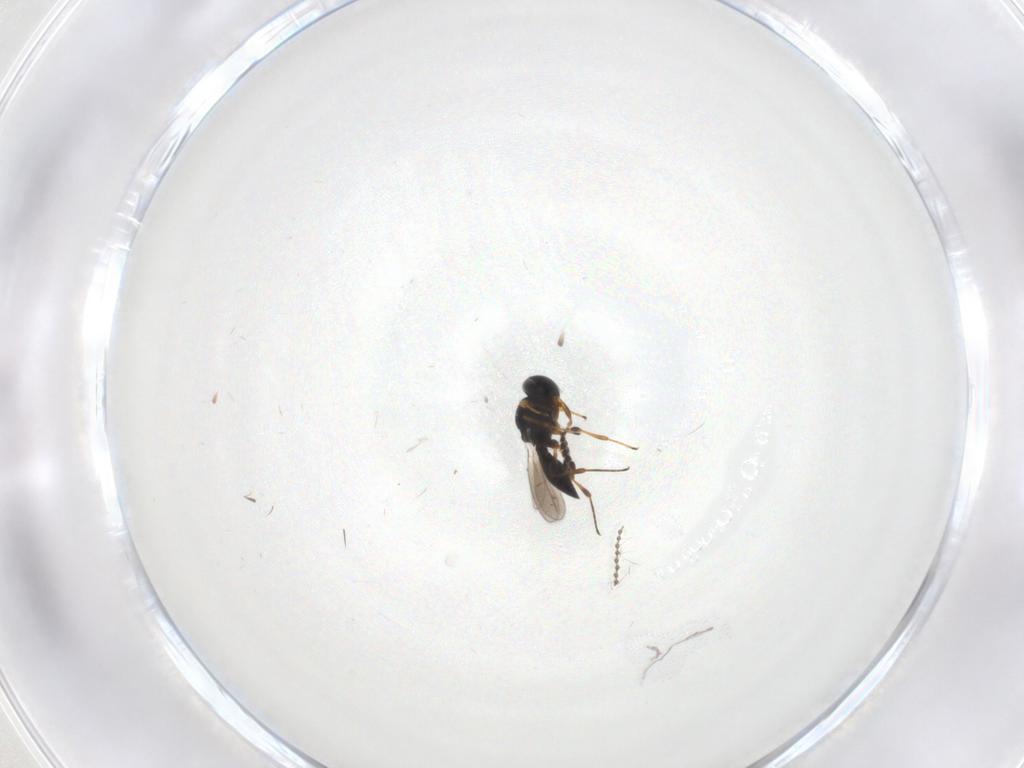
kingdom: Animalia
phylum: Arthropoda
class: Insecta
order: Hymenoptera
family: Platygastridae
